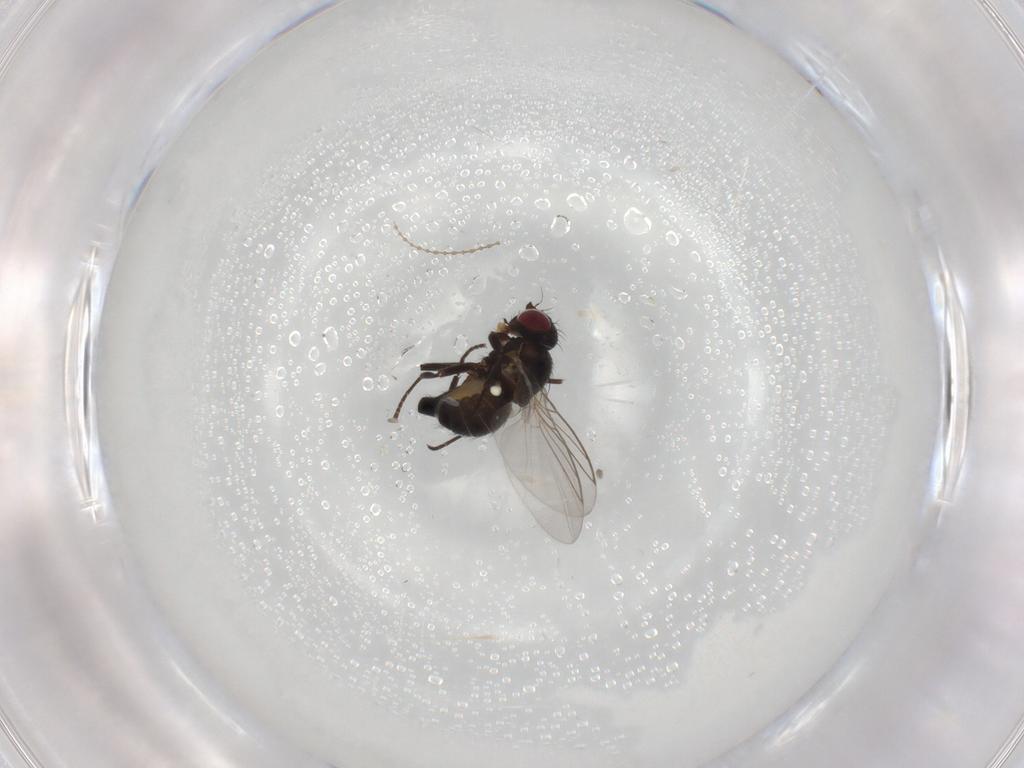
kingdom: Animalia
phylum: Arthropoda
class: Insecta
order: Diptera
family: Agromyzidae
